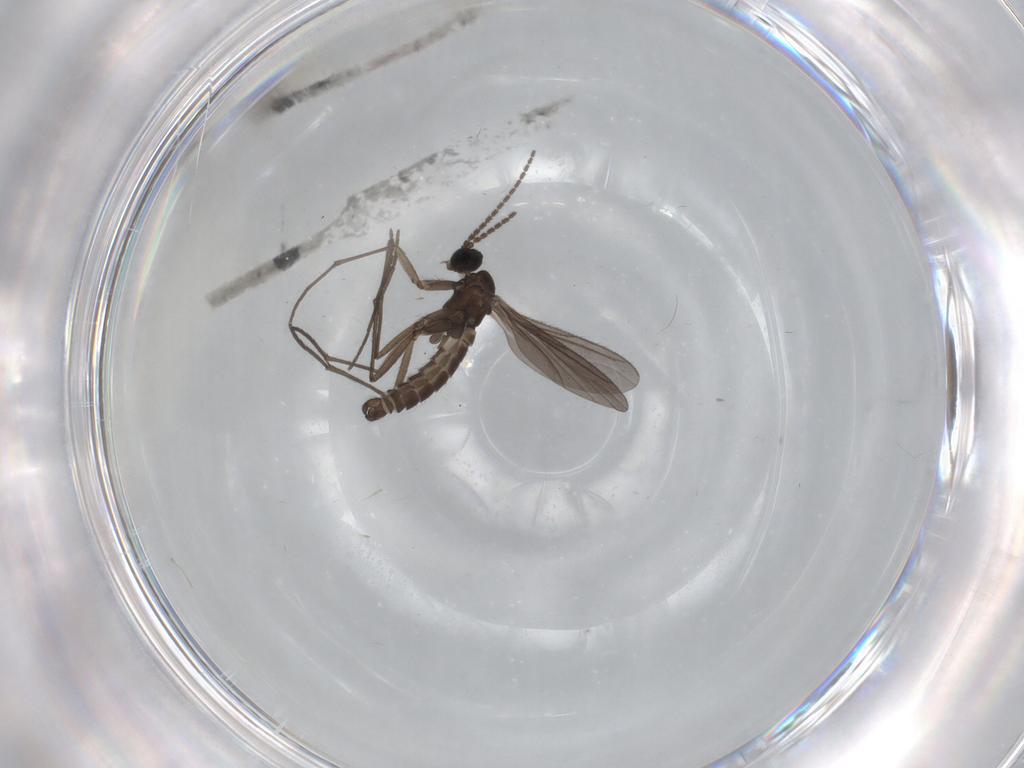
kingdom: Animalia
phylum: Arthropoda
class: Insecta
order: Diptera
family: Sciaridae
